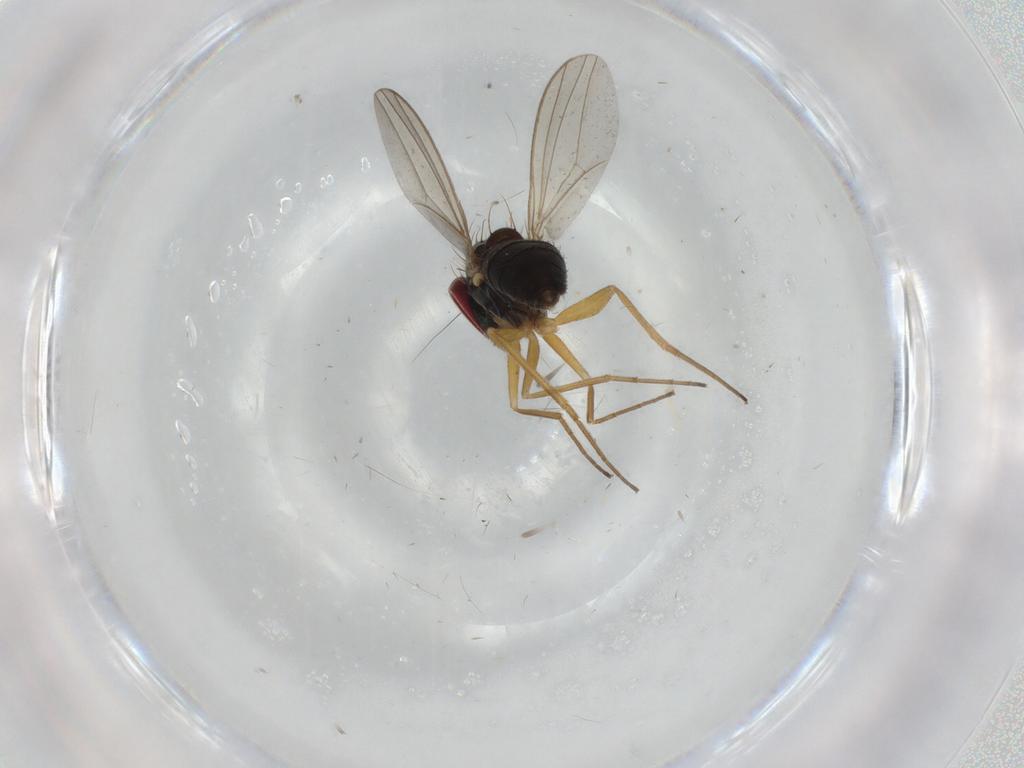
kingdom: Animalia
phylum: Arthropoda
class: Insecta
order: Diptera
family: Dolichopodidae
